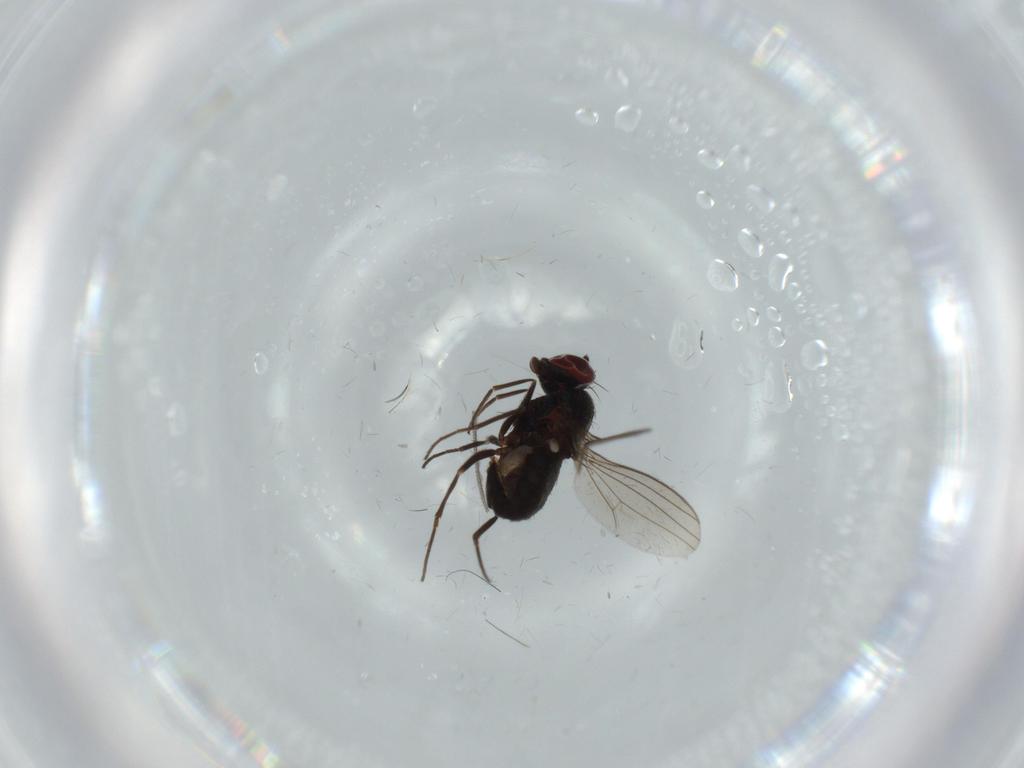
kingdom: Animalia
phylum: Arthropoda
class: Insecta
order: Diptera
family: Dolichopodidae
